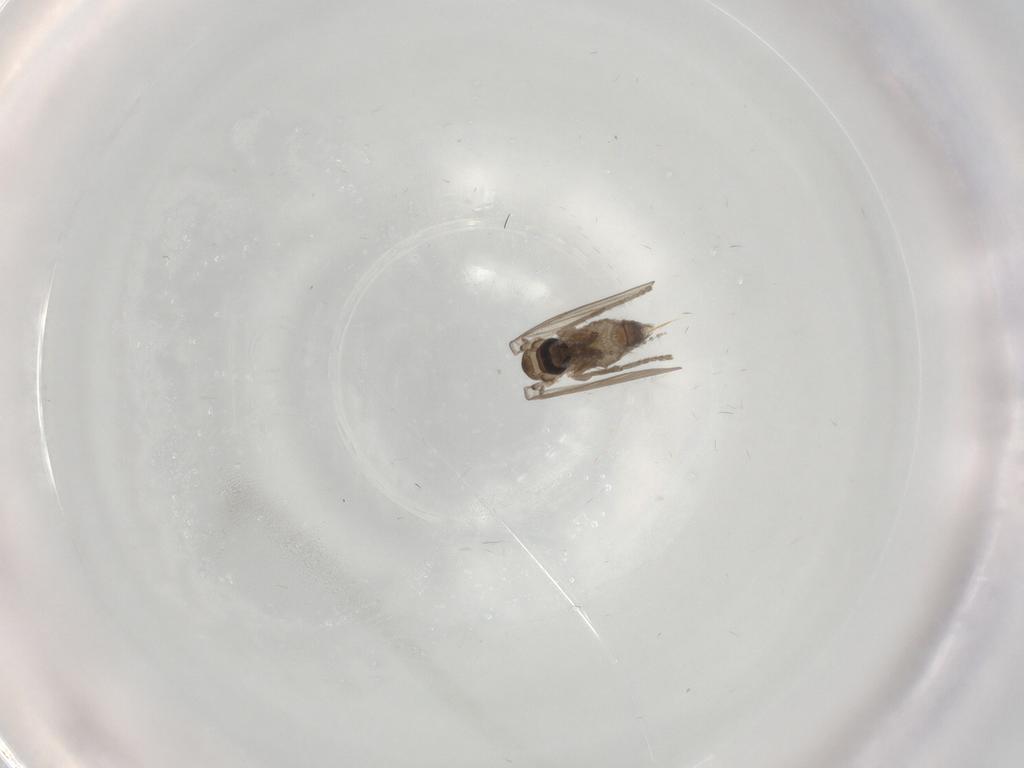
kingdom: Animalia
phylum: Arthropoda
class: Insecta
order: Diptera
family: Psychodidae
